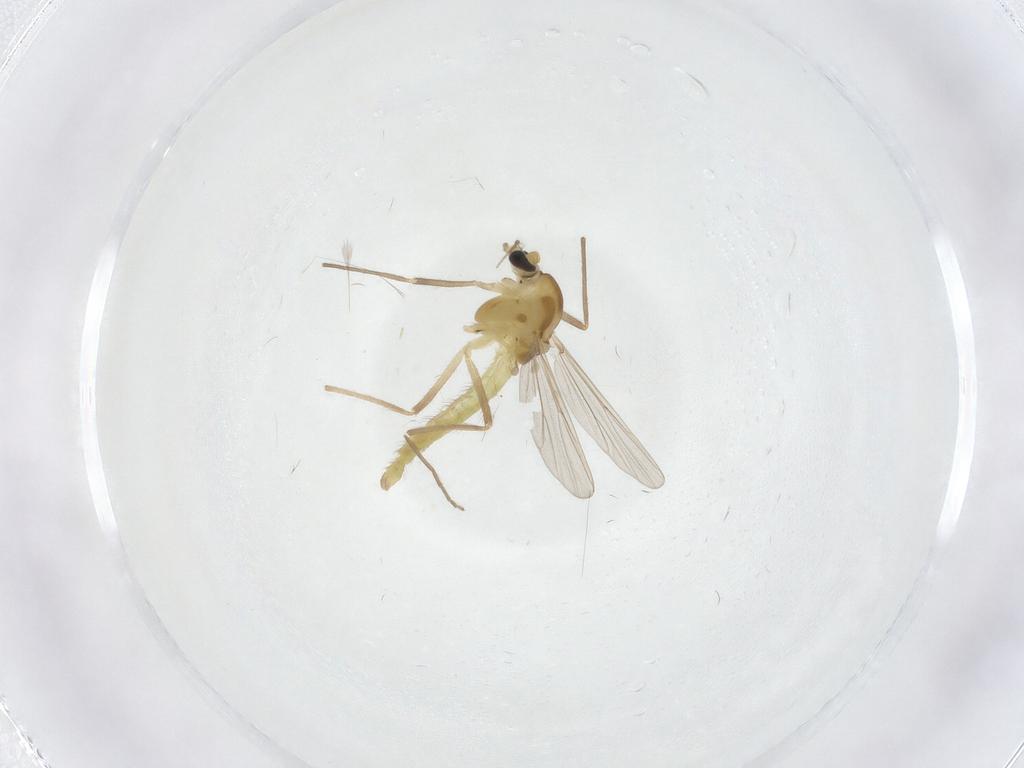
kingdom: Animalia
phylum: Arthropoda
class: Insecta
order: Diptera
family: Chironomidae
